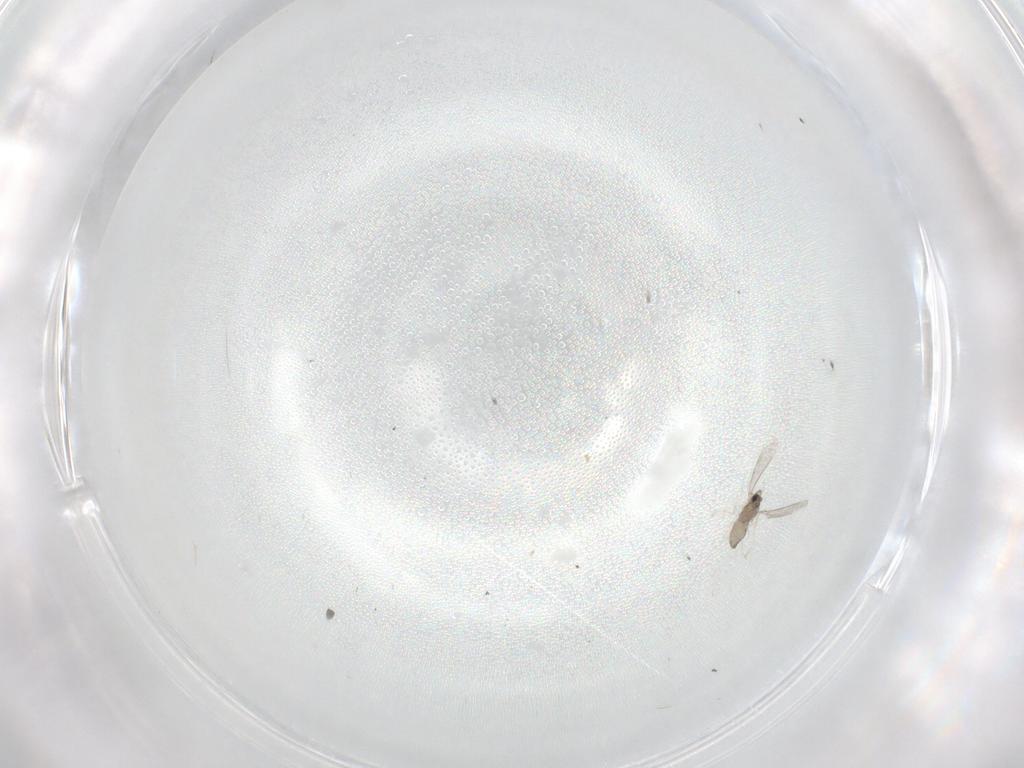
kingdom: Animalia
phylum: Arthropoda
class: Insecta
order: Diptera
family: Cecidomyiidae
